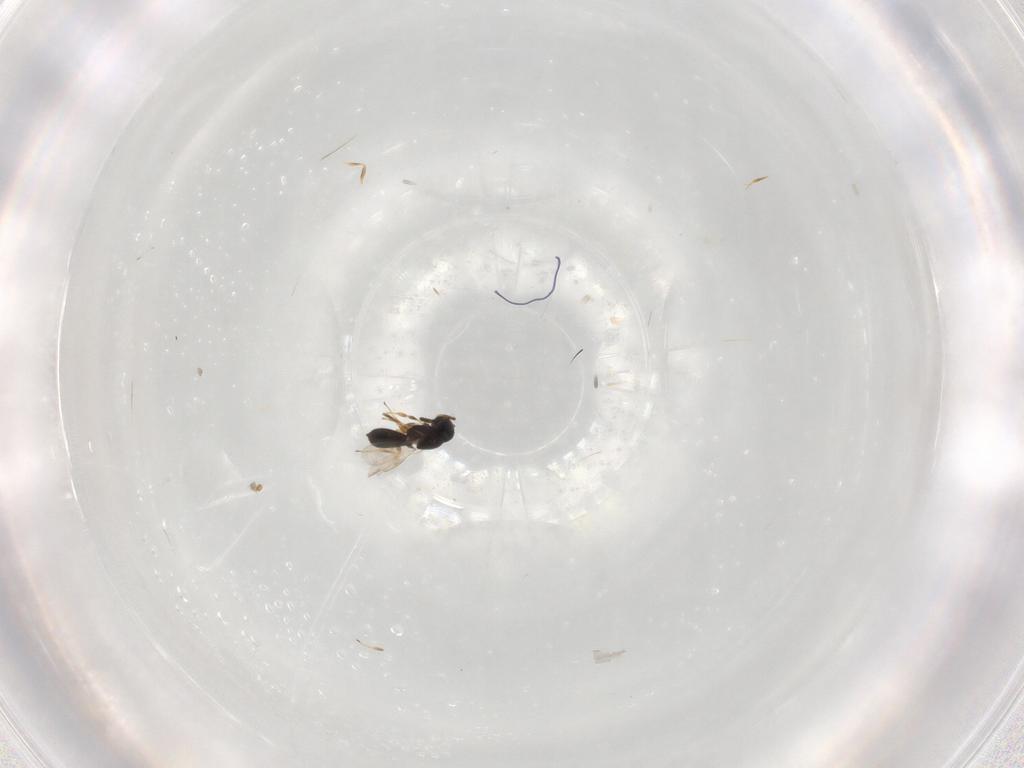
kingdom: Animalia
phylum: Arthropoda
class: Insecta
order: Hymenoptera
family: Scelionidae
